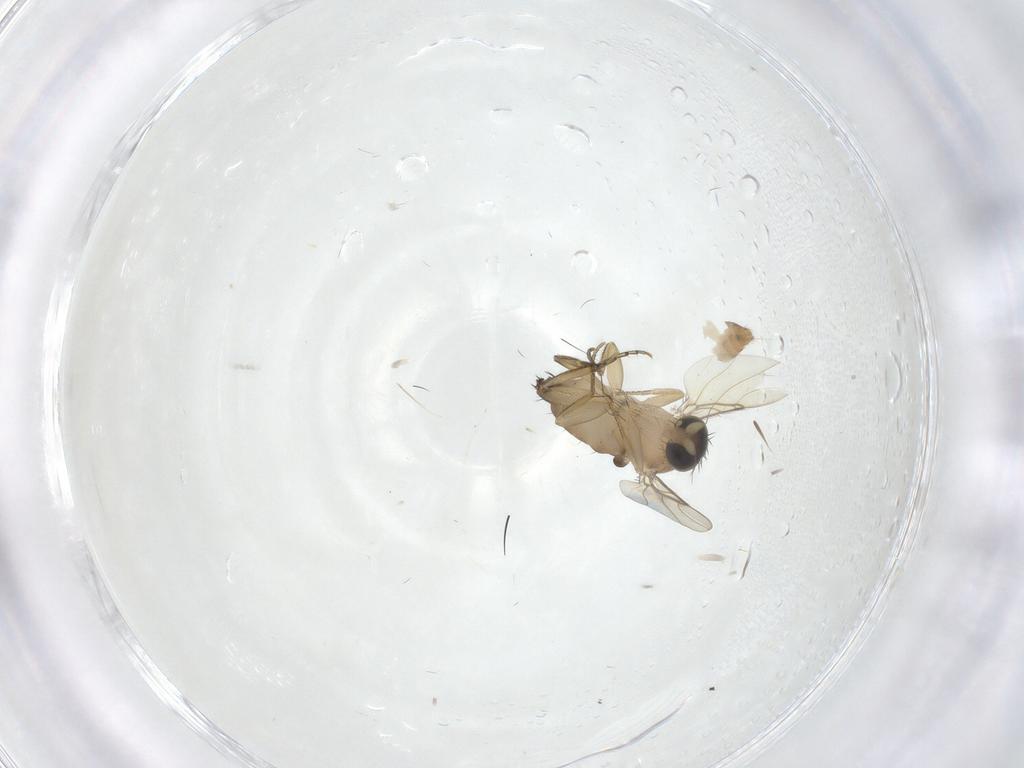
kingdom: Animalia
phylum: Arthropoda
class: Insecta
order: Diptera
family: Phoridae
